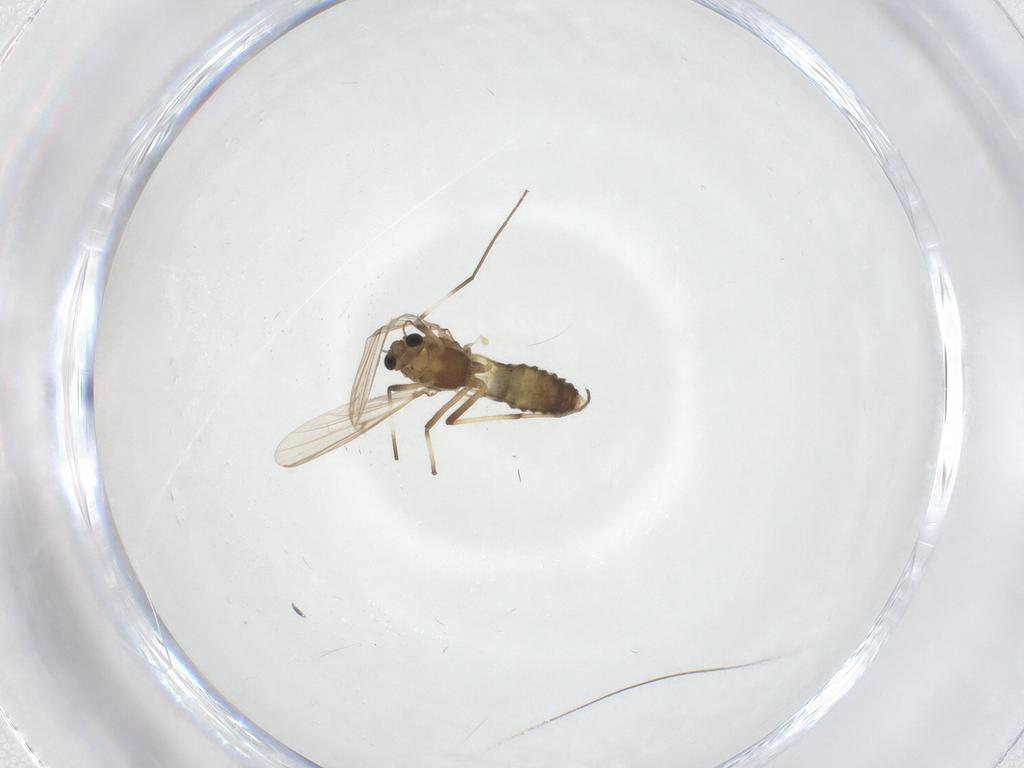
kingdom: Animalia
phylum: Arthropoda
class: Insecta
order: Diptera
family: Chironomidae
